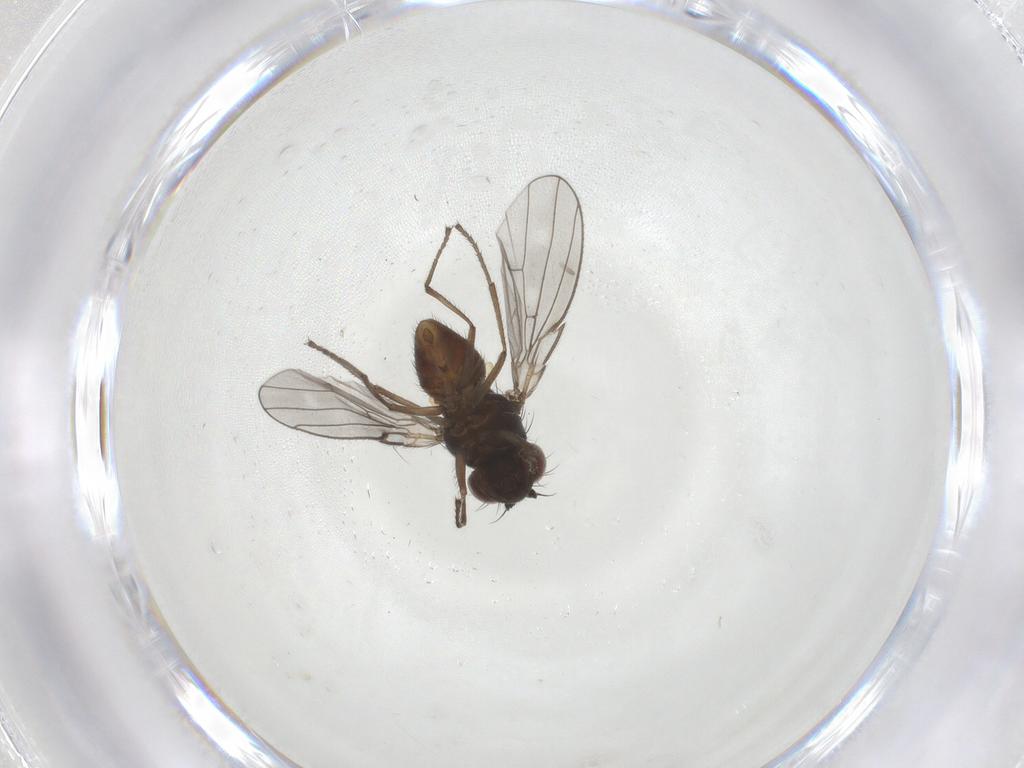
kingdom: Animalia
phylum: Arthropoda
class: Insecta
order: Diptera
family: Ephydridae
